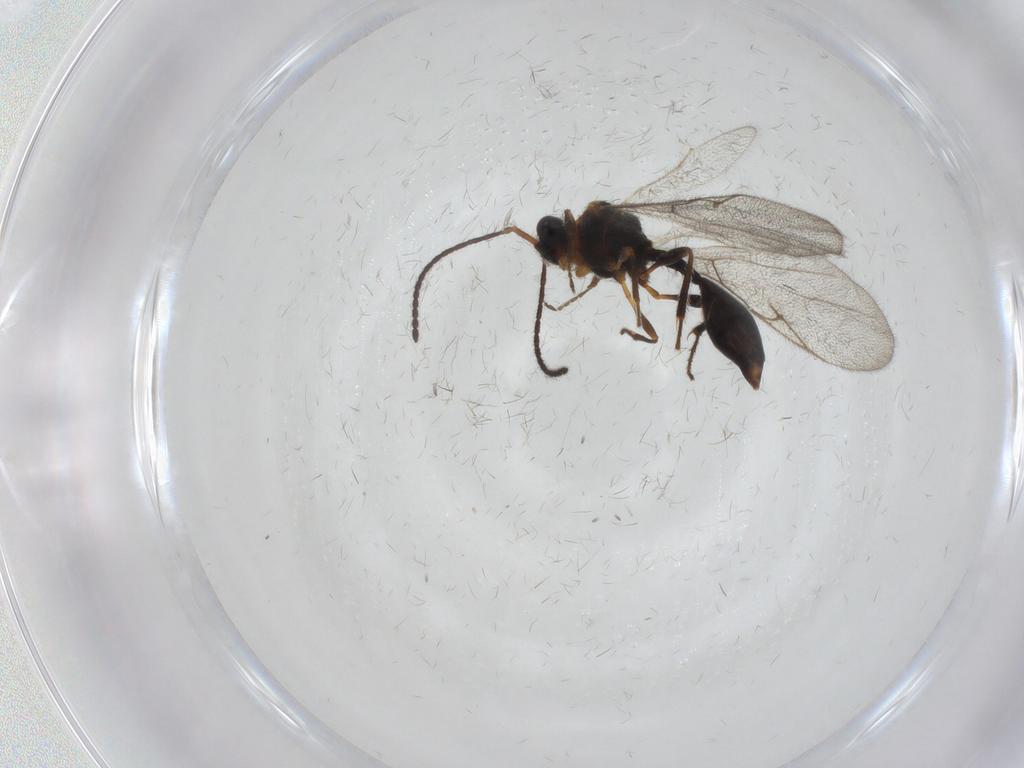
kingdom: Animalia
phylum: Arthropoda
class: Insecta
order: Hymenoptera
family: Diapriidae
